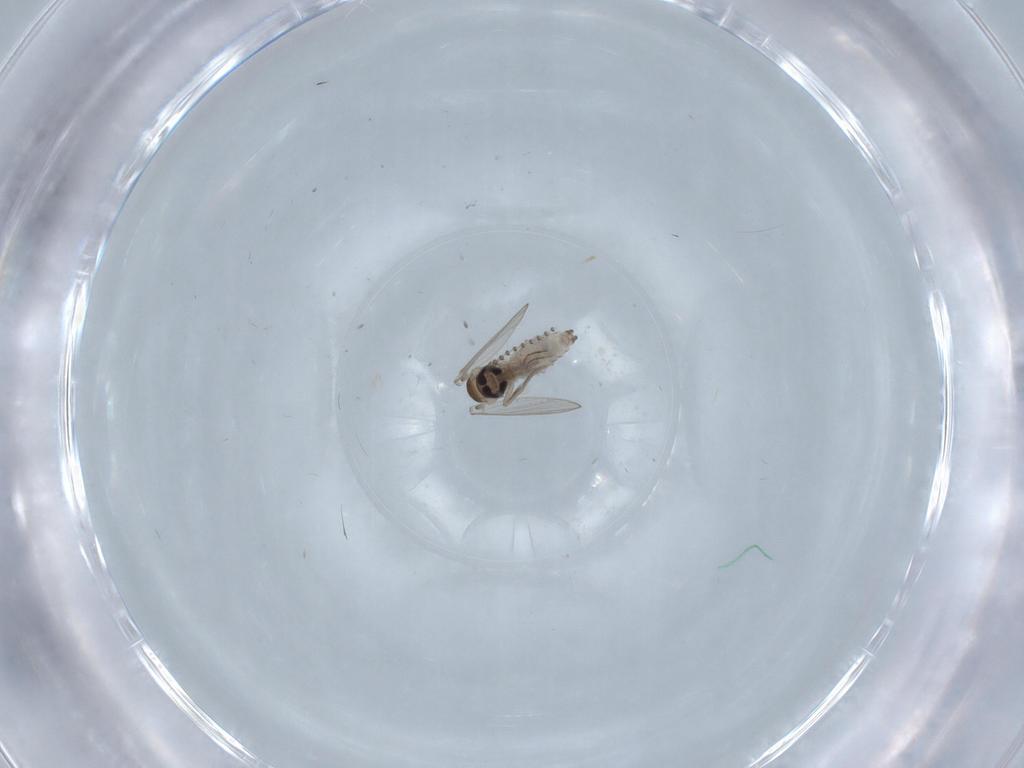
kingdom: Animalia
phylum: Arthropoda
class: Insecta
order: Diptera
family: Psychodidae
